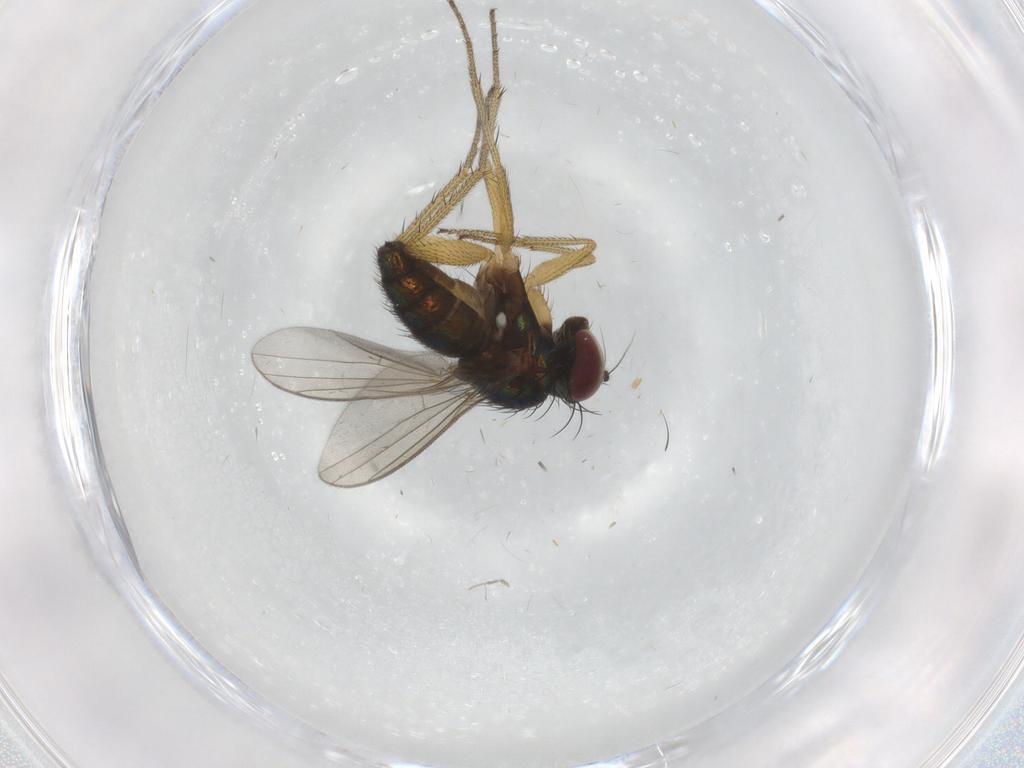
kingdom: Animalia
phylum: Arthropoda
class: Insecta
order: Diptera
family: Dolichopodidae
